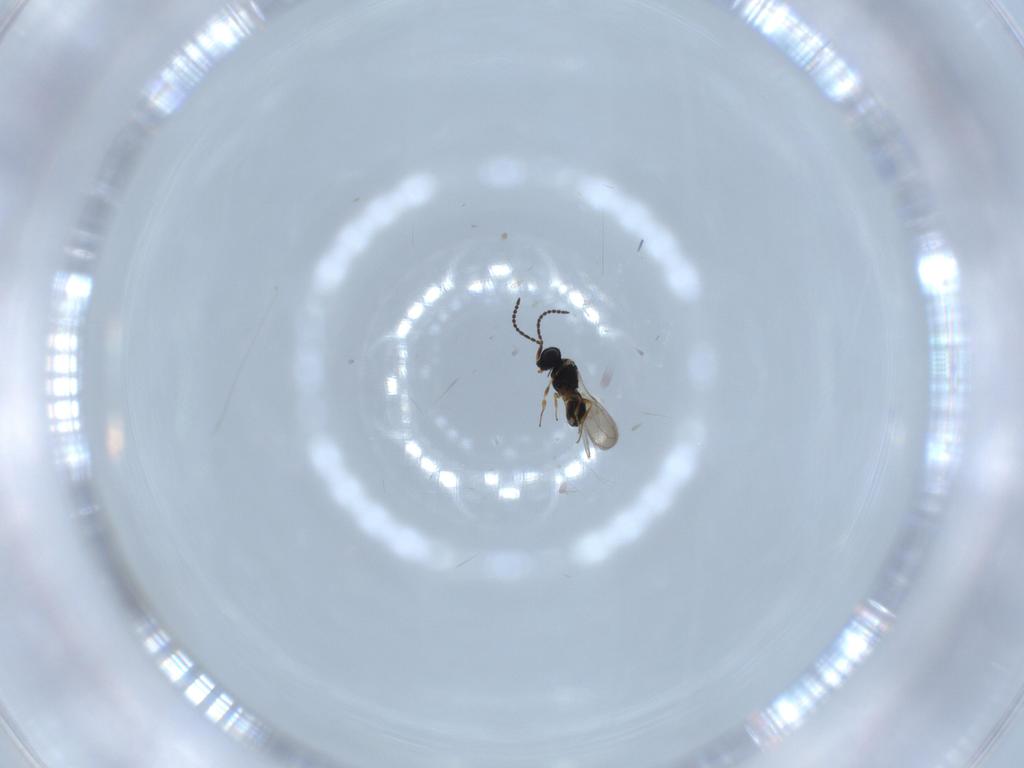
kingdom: Animalia
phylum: Arthropoda
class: Insecta
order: Hymenoptera
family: Scelionidae
